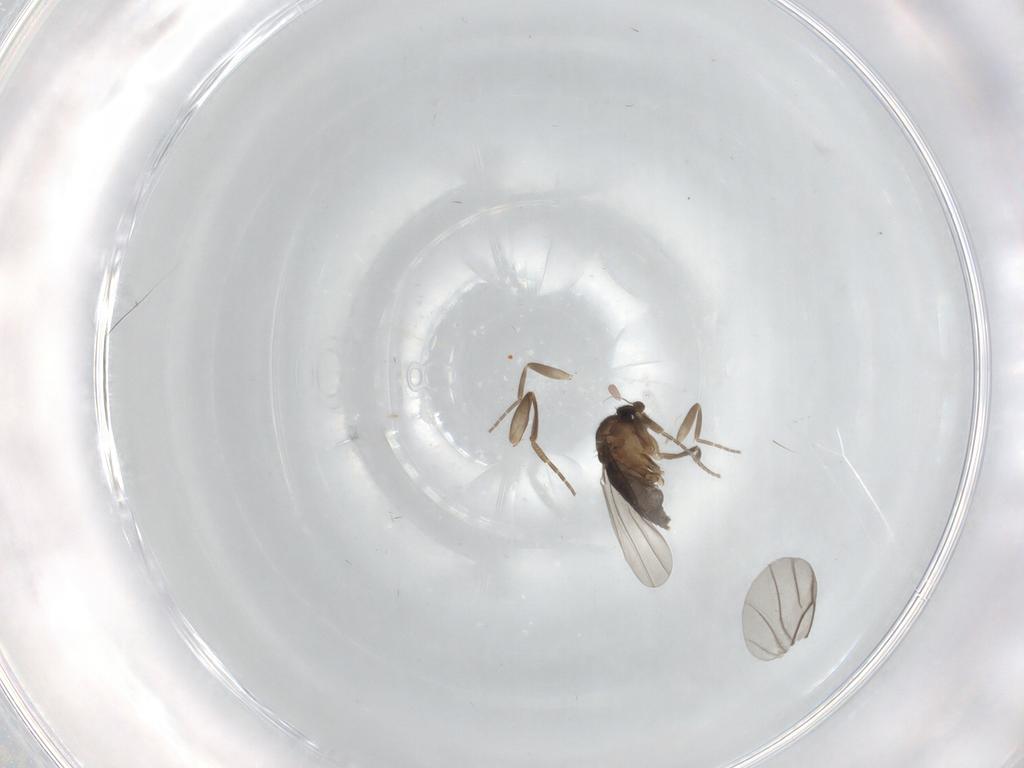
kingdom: Animalia
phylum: Arthropoda
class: Insecta
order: Diptera
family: Phoridae
